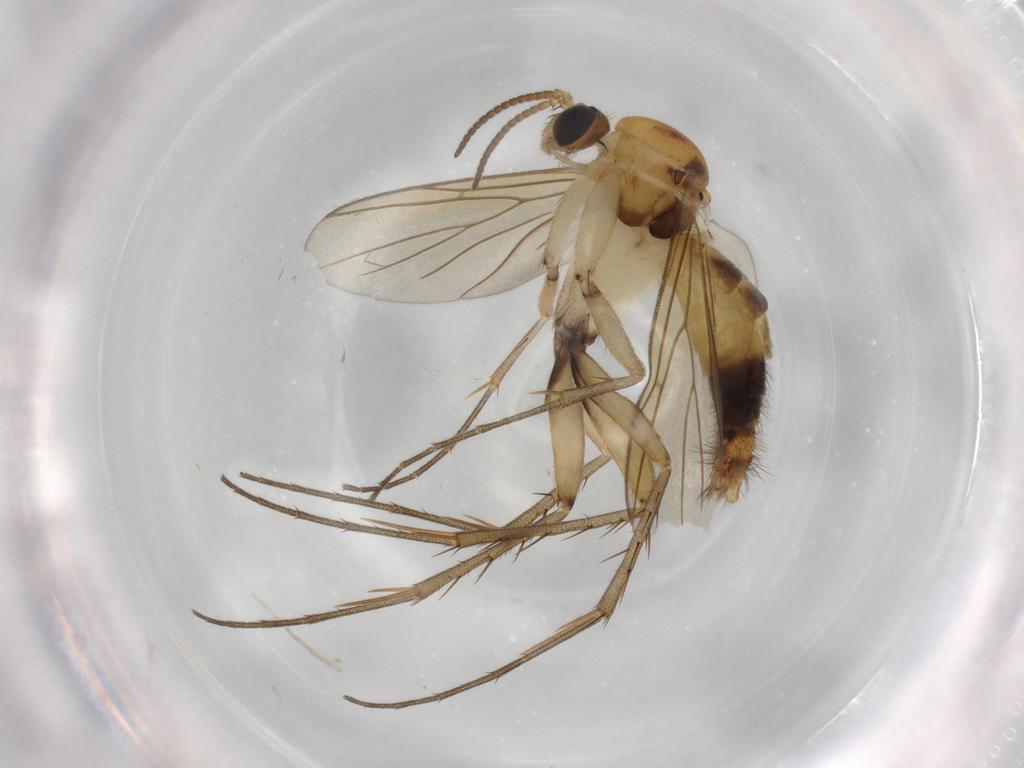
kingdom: Animalia
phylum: Arthropoda
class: Insecta
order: Diptera
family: Mycetophilidae
